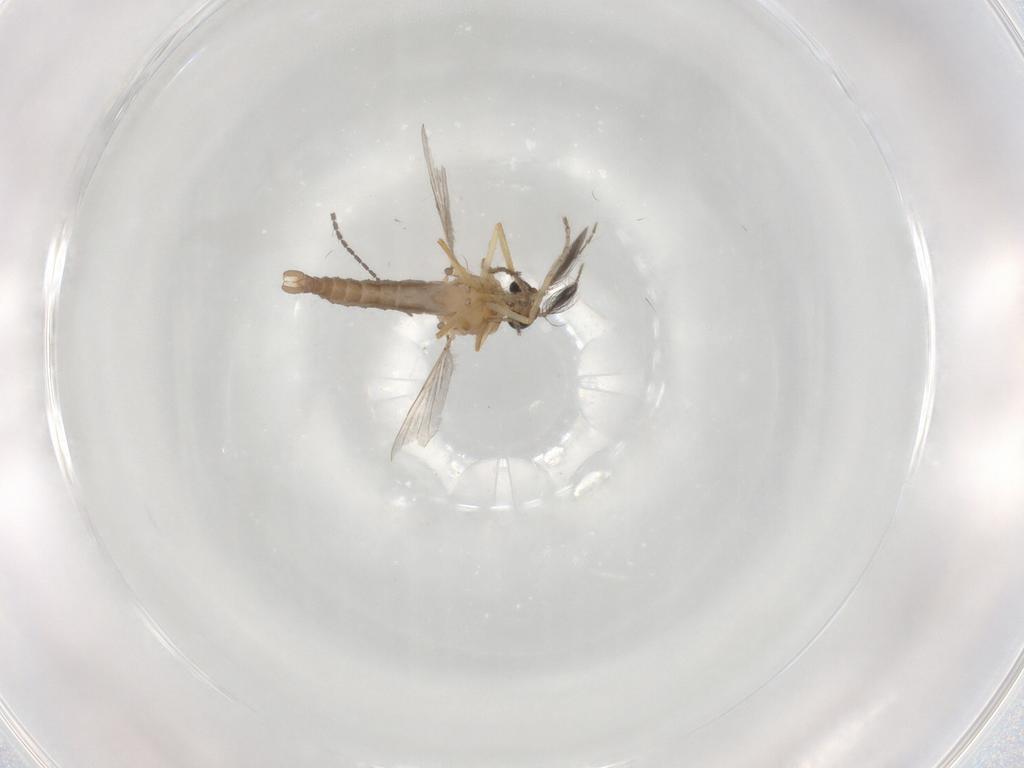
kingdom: Animalia
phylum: Arthropoda
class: Insecta
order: Diptera
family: Ceratopogonidae
